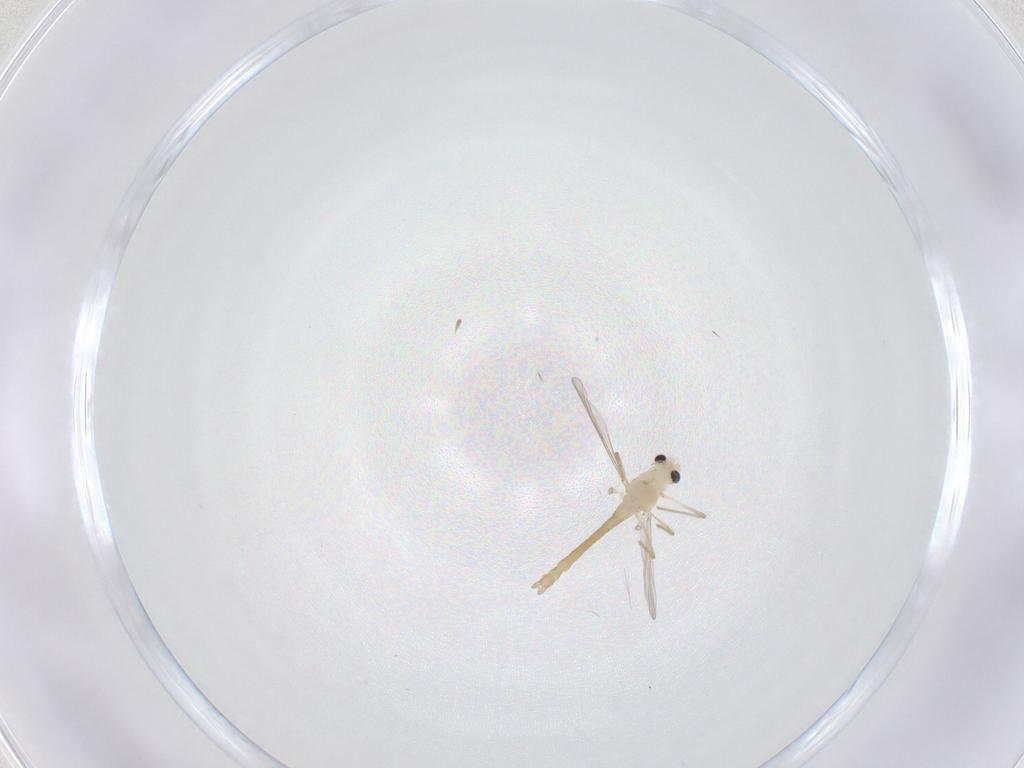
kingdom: Animalia
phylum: Arthropoda
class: Insecta
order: Diptera
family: Chironomidae
